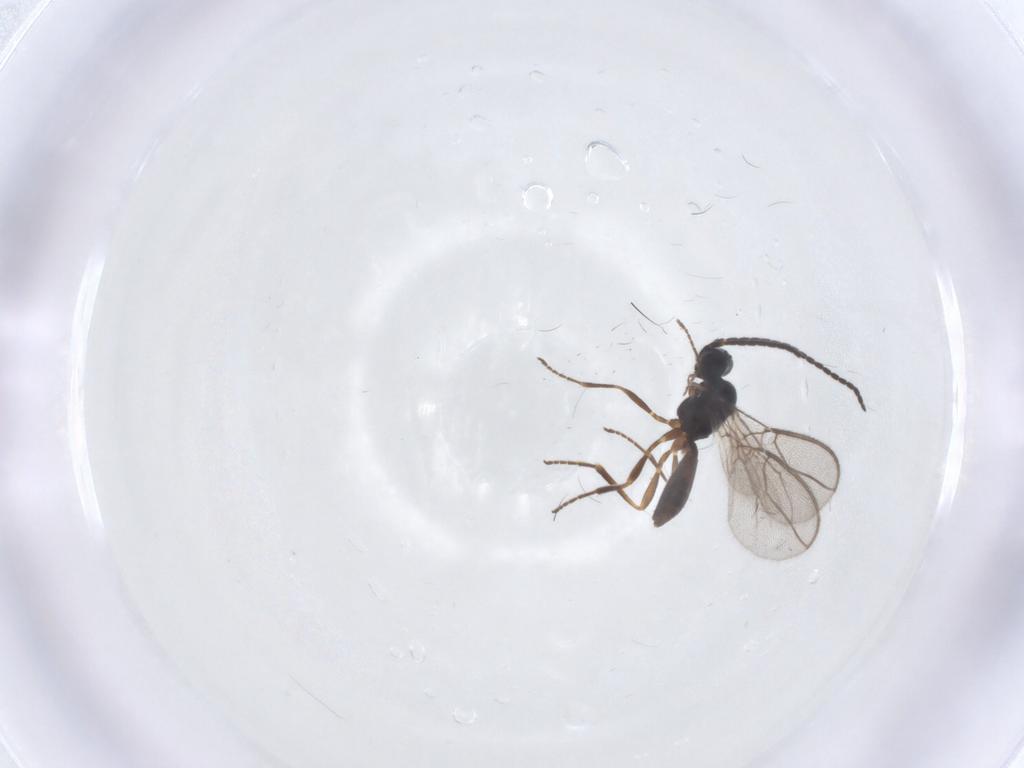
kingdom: Animalia
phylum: Arthropoda
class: Insecta
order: Hymenoptera
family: Braconidae
